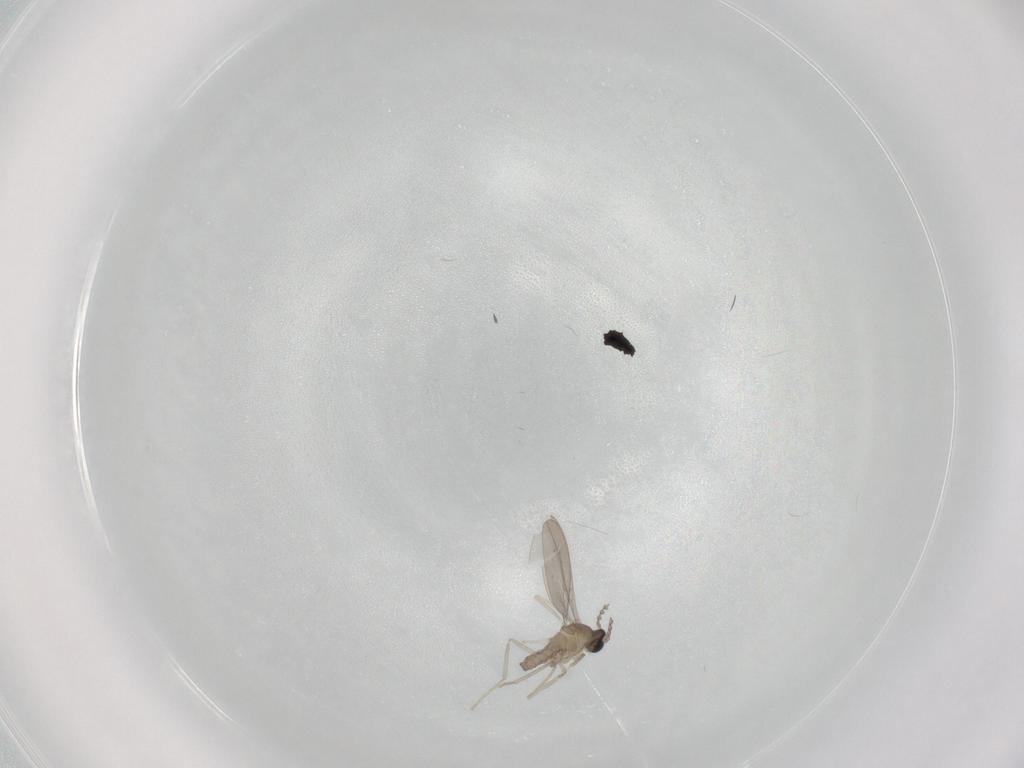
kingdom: Animalia
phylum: Arthropoda
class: Insecta
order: Diptera
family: Cecidomyiidae
